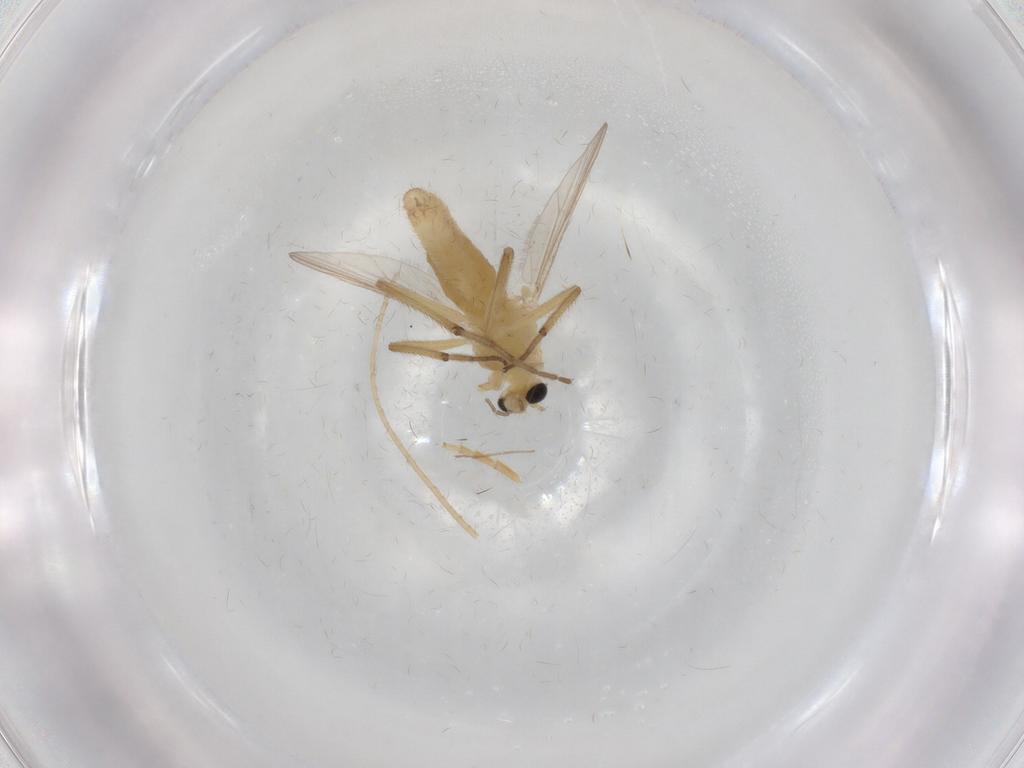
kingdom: Animalia
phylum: Arthropoda
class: Insecta
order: Diptera
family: Chironomidae
